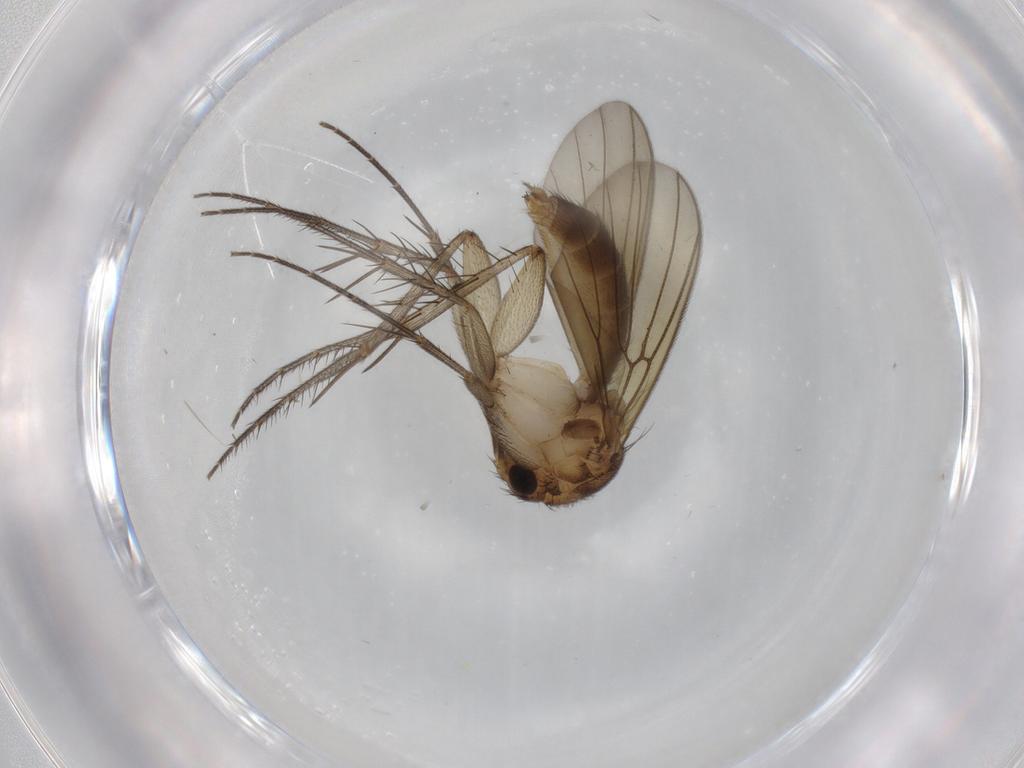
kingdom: Animalia
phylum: Arthropoda
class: Insecta
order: Diptera
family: Mycetophilidae
